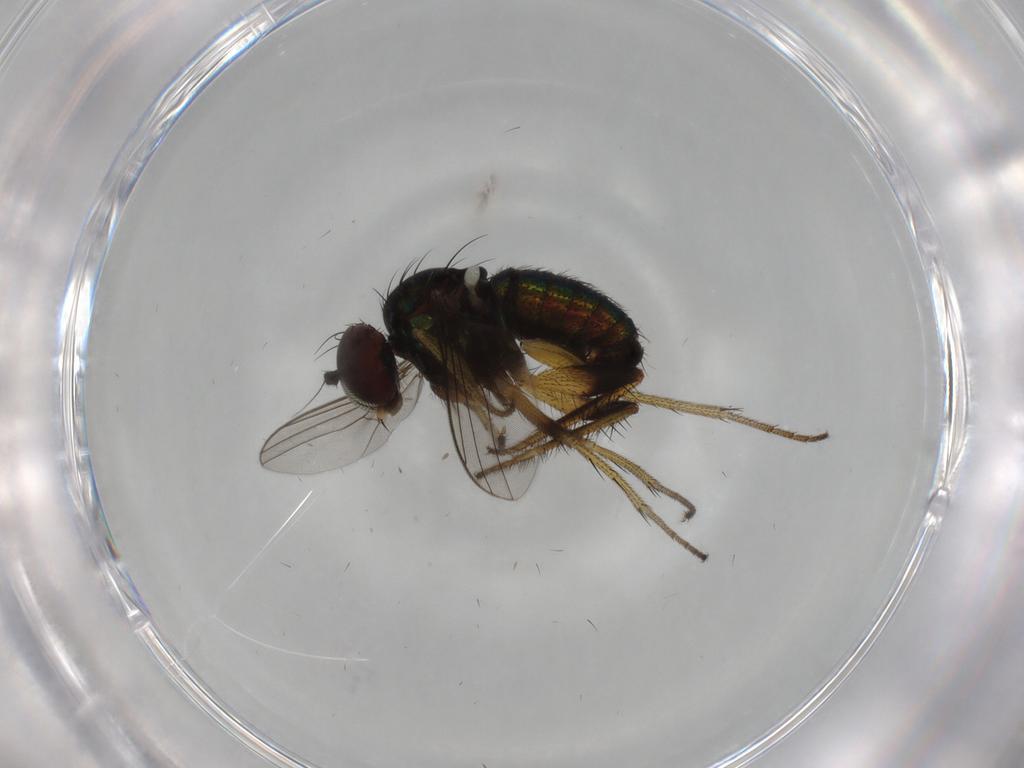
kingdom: Animalia
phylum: Arthropoda
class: Insecta
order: Diptera
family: Dolichopodidae
